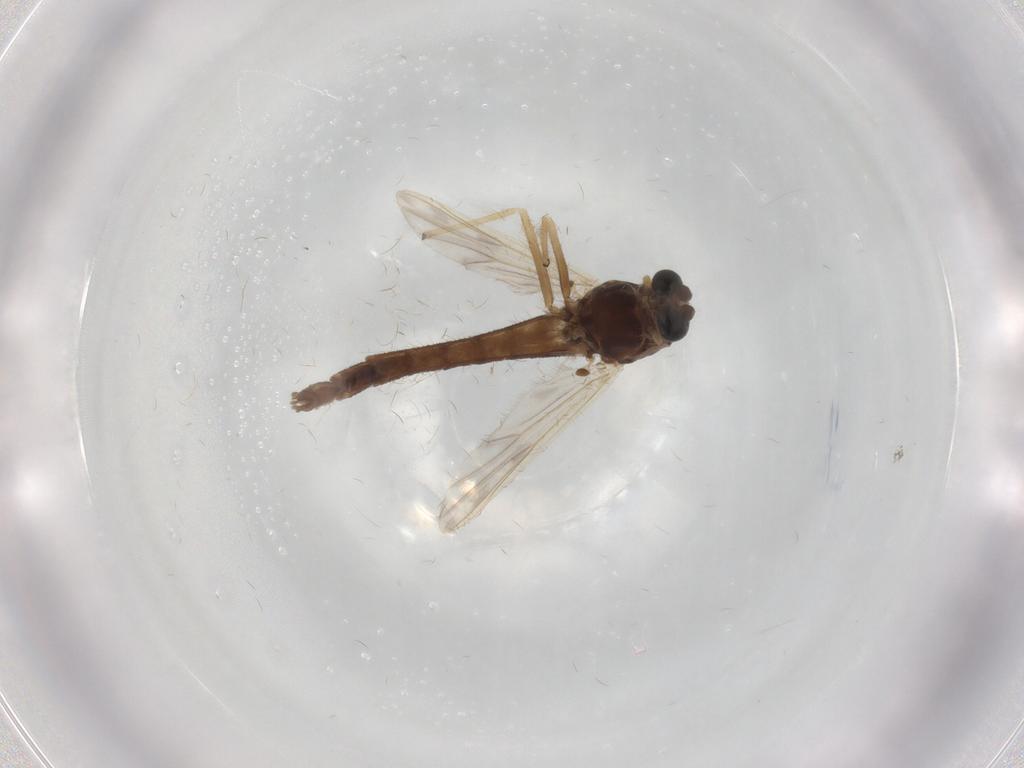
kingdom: Animalia
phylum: Arthropoda
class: Insecta
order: Diptera
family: Chironomidae
